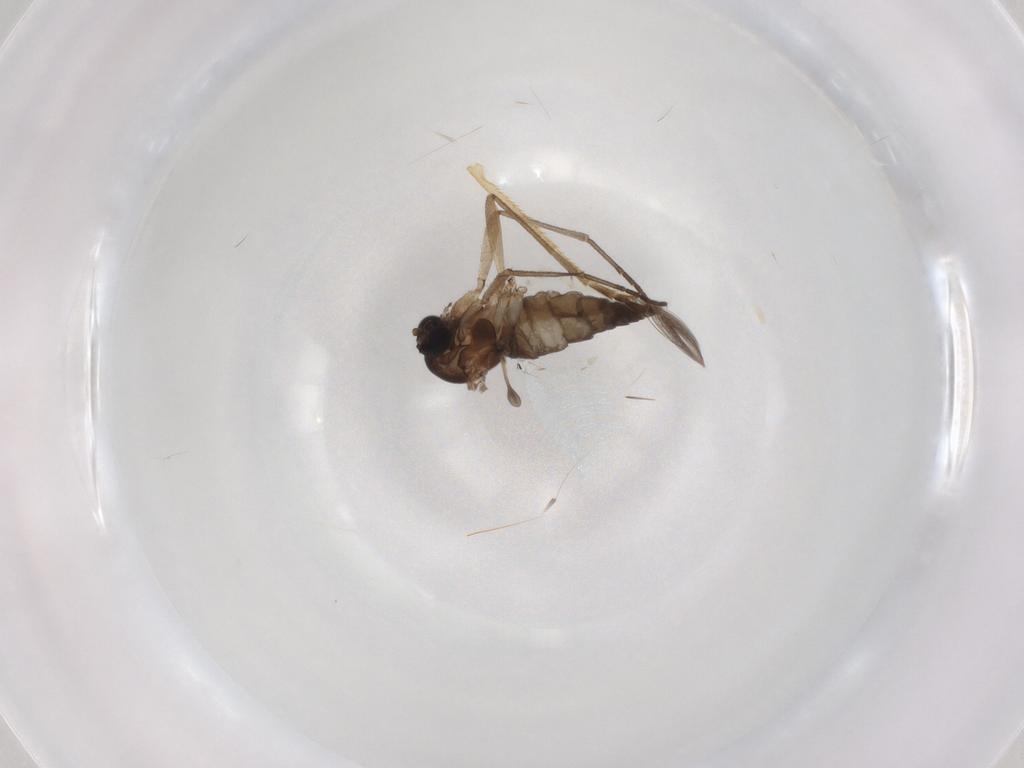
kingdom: Animalia
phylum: Arthropoda
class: Insecta
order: Diptera
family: Sciaridae
